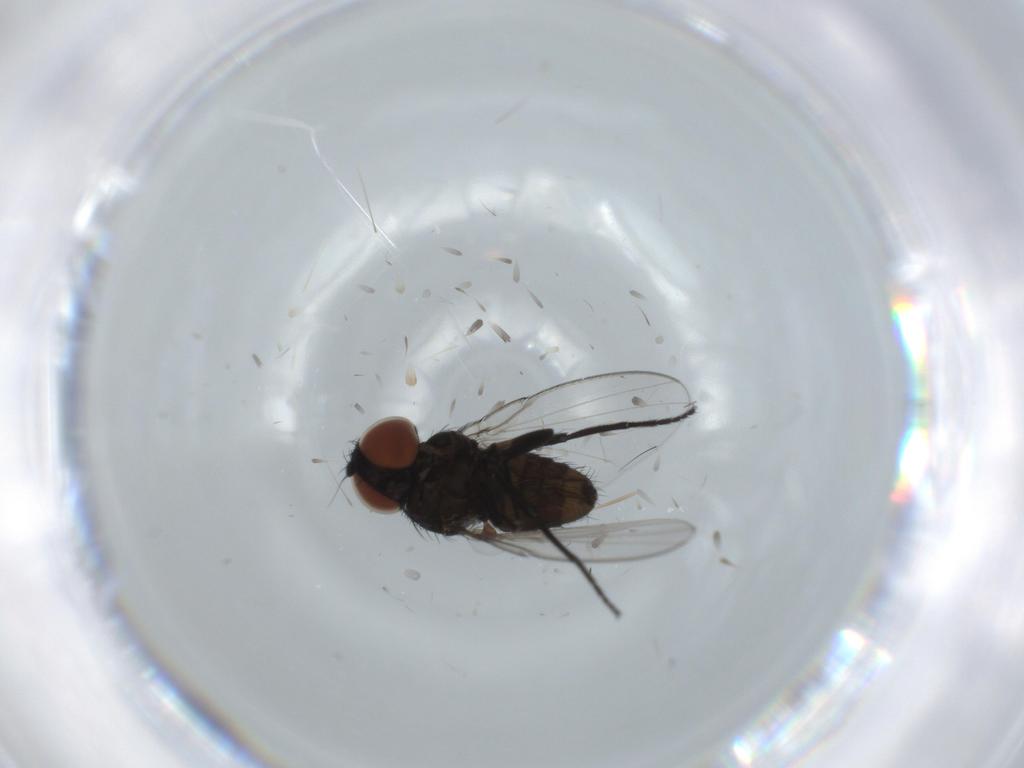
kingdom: Animalia
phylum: Arthropoda
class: Insecta
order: Diptera
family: Milichiidae
